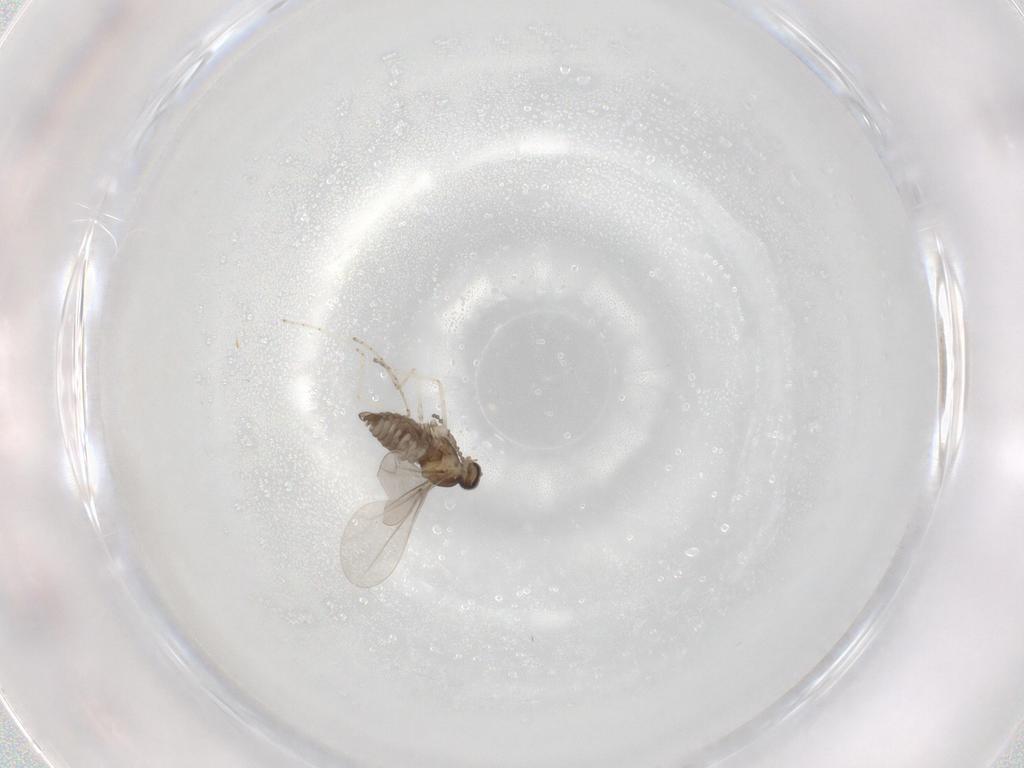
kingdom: Animalia
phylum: Arthropoda
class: Insecta
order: Diptera
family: Cecidomyiidae
